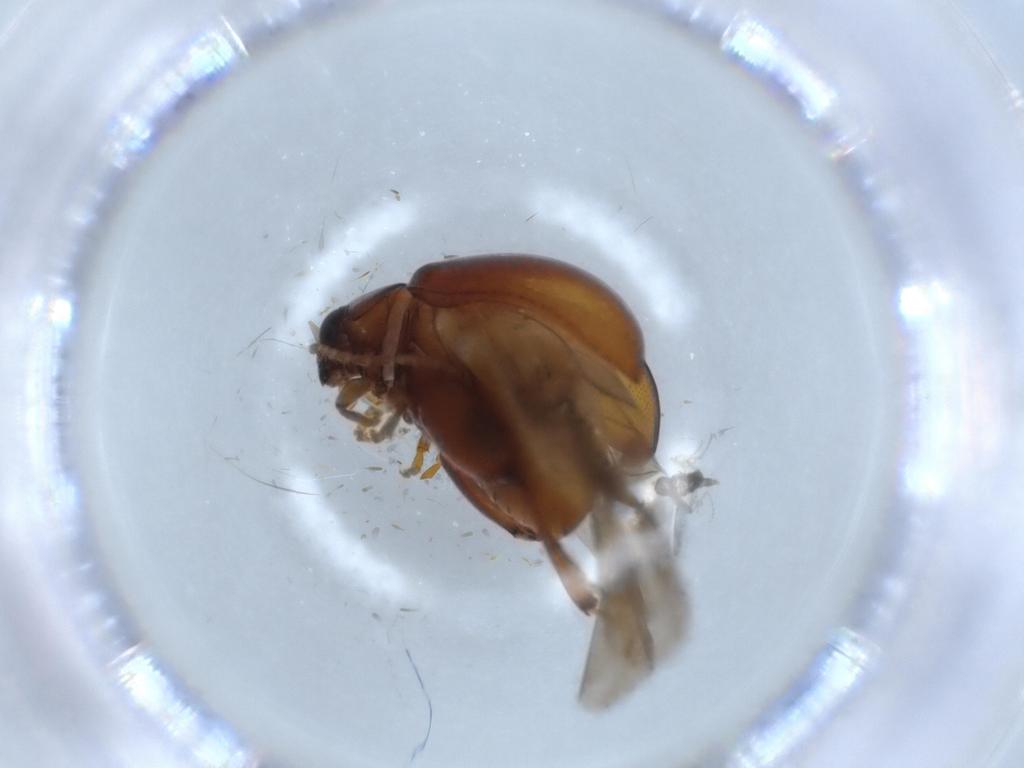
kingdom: Animalia
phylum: Arthropoda
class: Insecta
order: Coleoptera
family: Chrysomelidae
